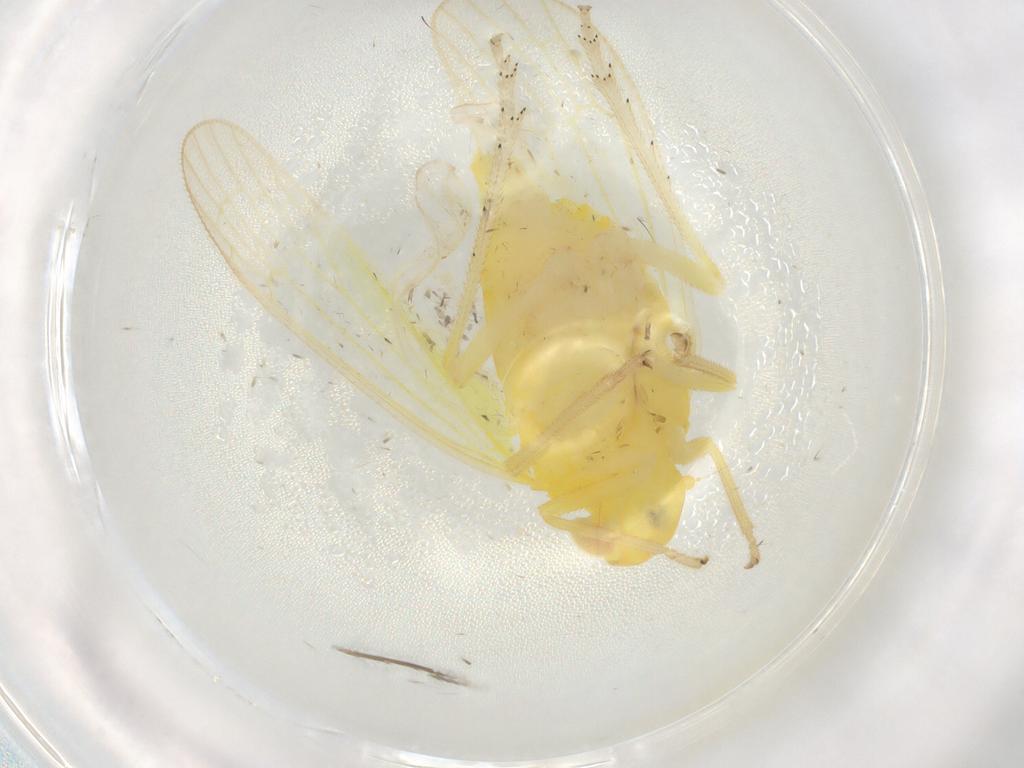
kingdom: Animalia
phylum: Arthropoda
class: Insecta
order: Hemiptera
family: Tropiduchidae
